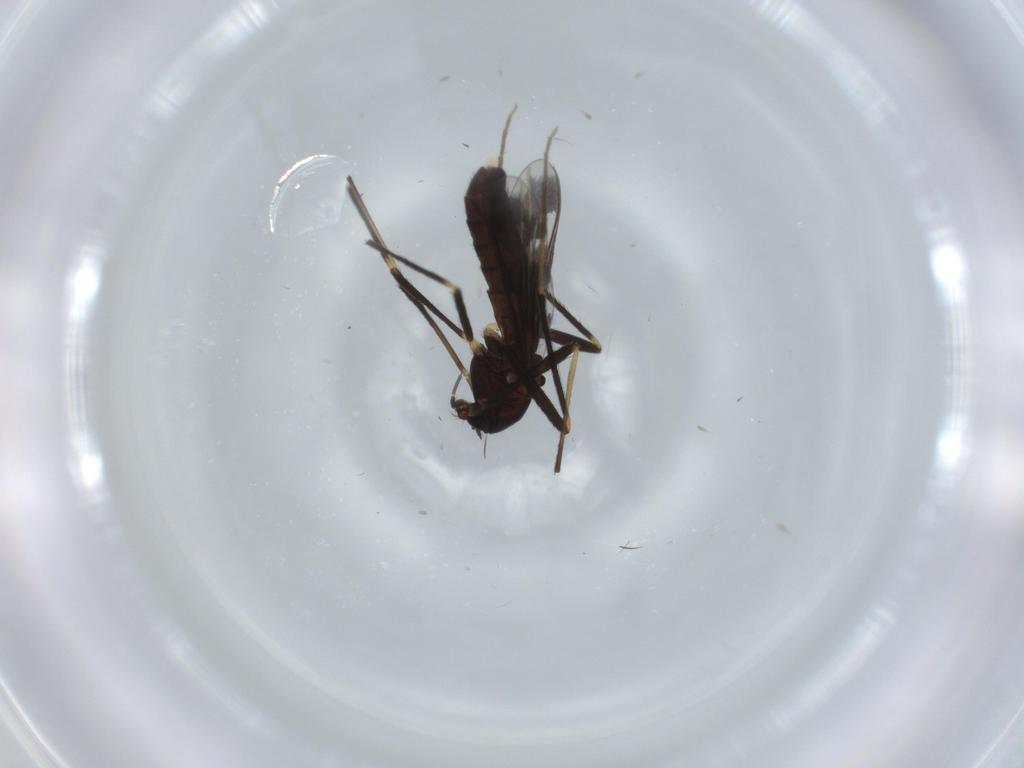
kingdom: Animalia
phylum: Arthropoda
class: Insecta
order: Diptera
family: Chironomidae
